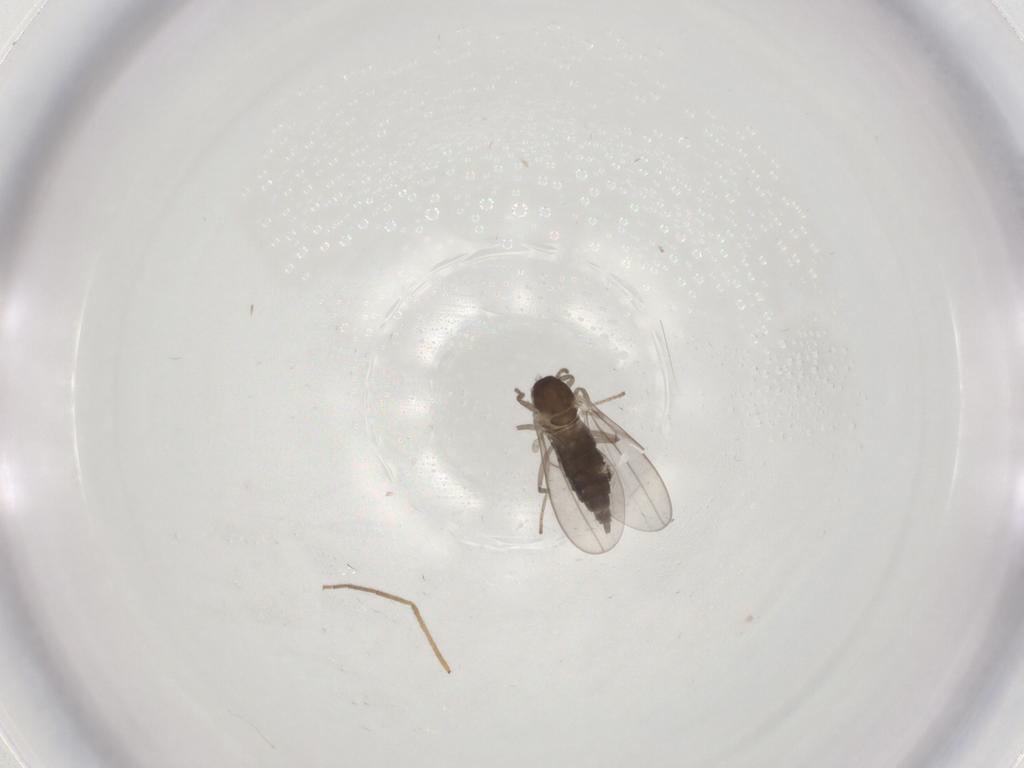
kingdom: Animalia
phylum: Arthropoda
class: Insecta
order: Diptera
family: Cecidomyiidae
